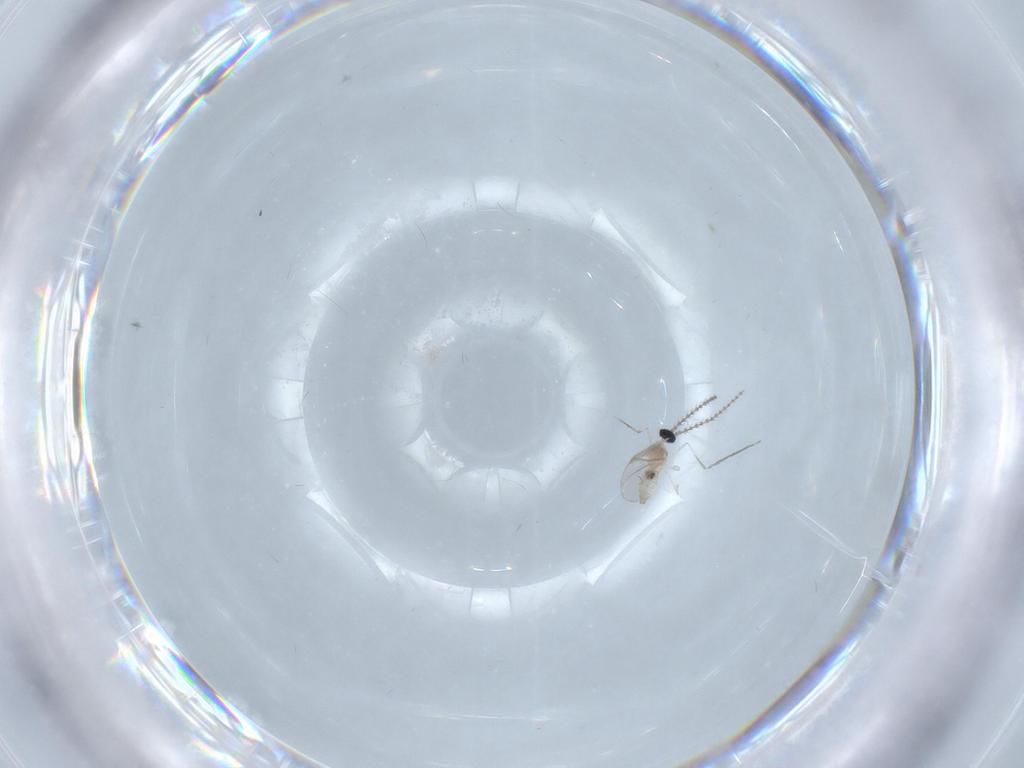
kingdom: Animalia
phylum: Arthropoda
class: Insecta
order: Diptera
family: Cecidomyiidae
